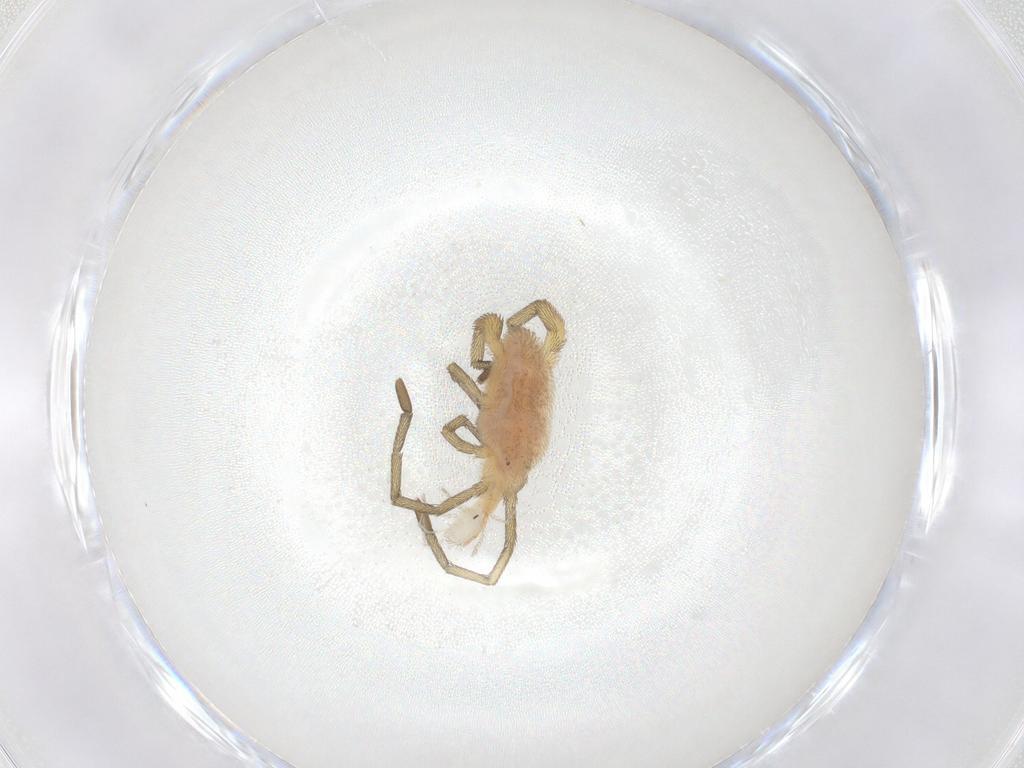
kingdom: Animalia
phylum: Arthropoda
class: Arachnida
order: Trombidiformes
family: Smarididae
